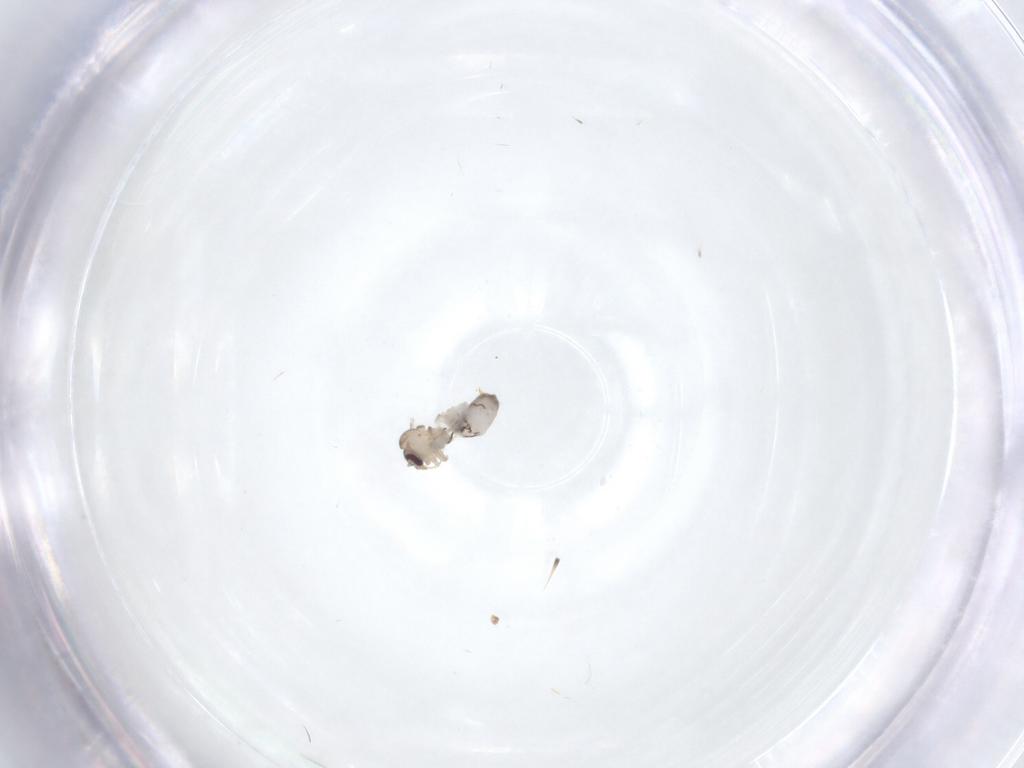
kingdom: Animalia
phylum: Arthropoda
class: Insecta
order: Diptera
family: Psychodidae
